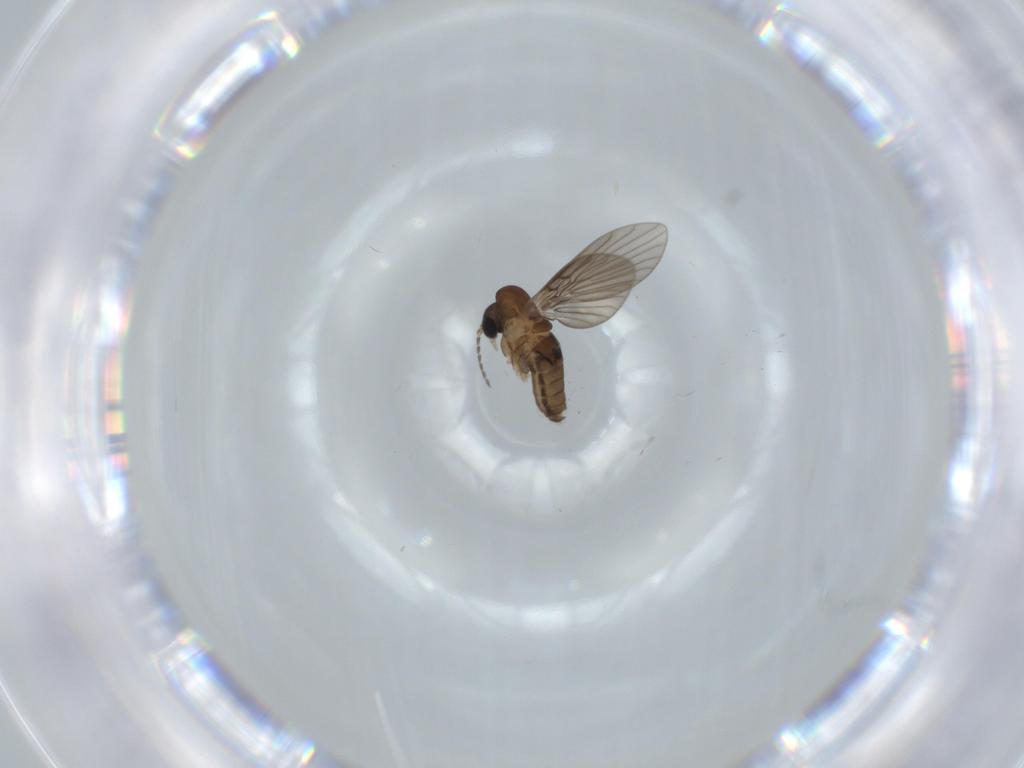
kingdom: Animalia
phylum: Arthropoda
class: Insecta
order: Diptera
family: Psychodidae
